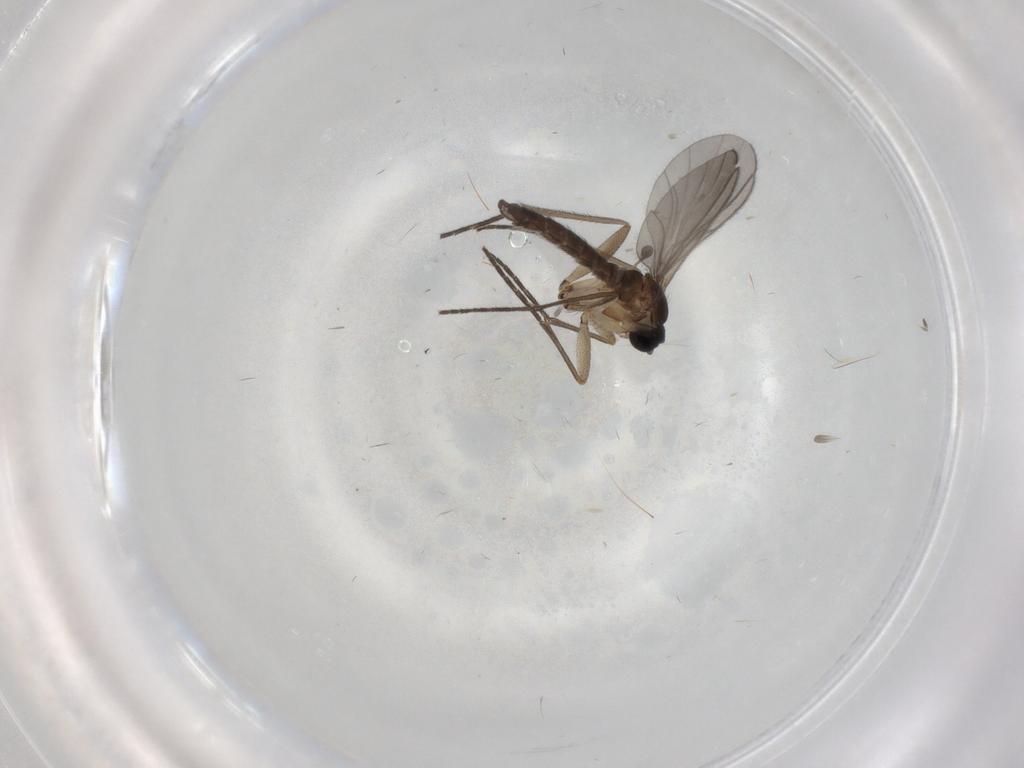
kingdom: Animalia
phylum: Arthropoda
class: Insecta
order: Diptera
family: Sciaridae
